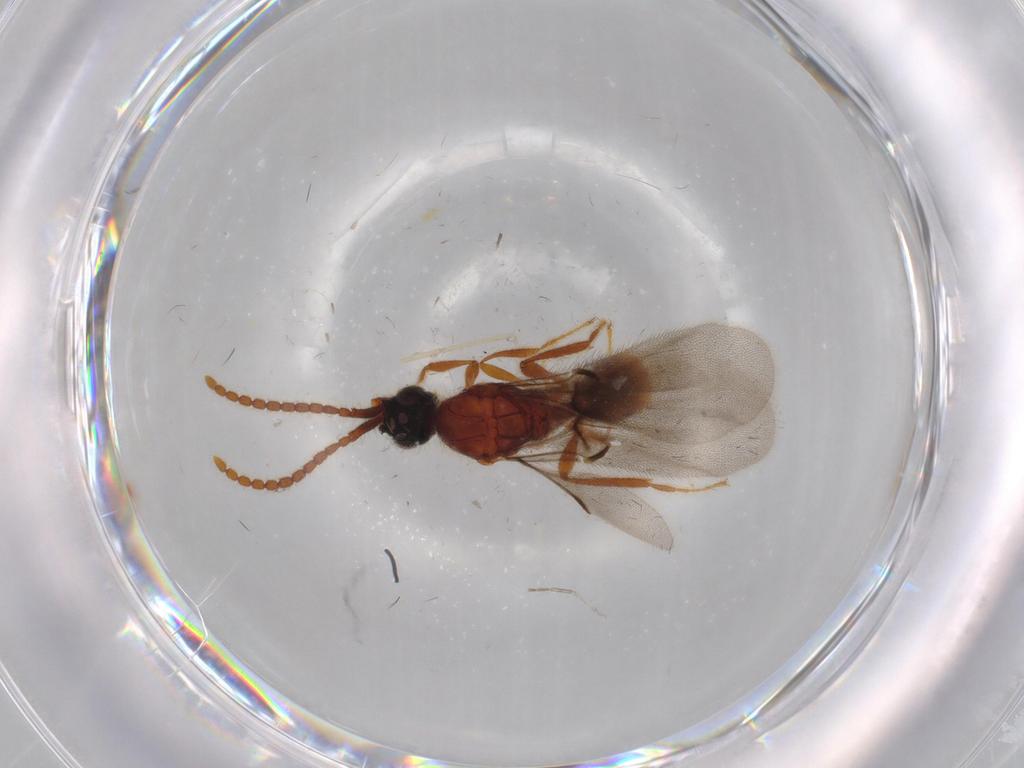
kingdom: Animalia
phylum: Arthropoda
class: Insecta
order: Hymenoptera
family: Diapriidae
